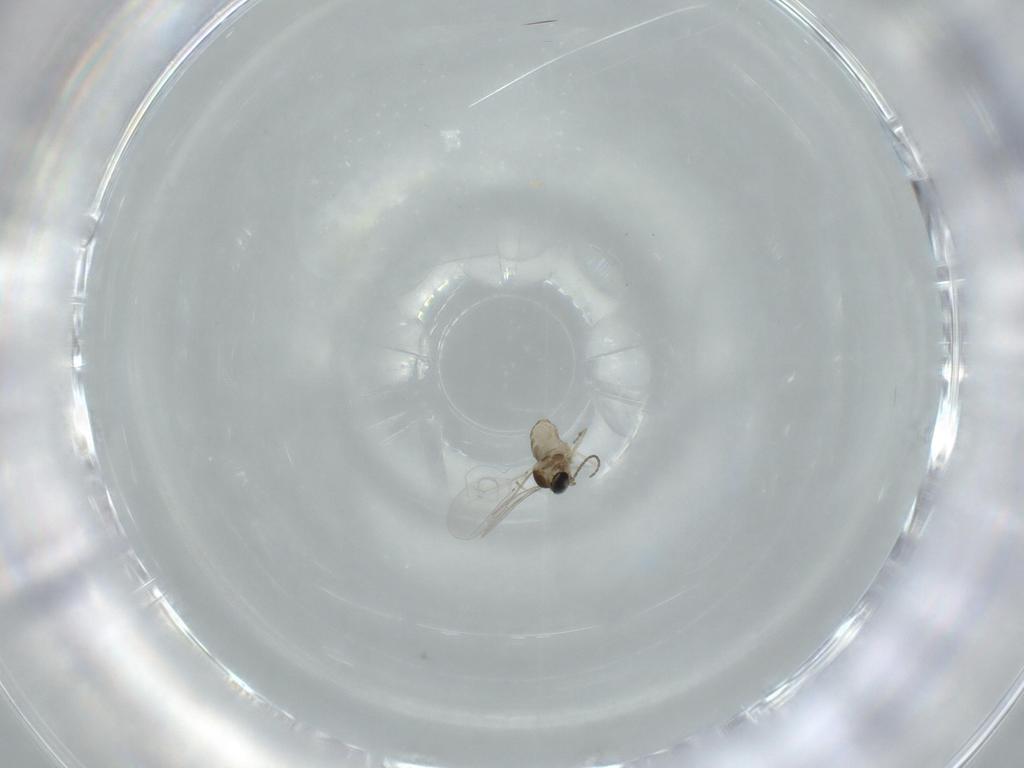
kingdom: Animalia
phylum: Arthropoda
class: Insecta
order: Diptera
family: Cecidomyiidae
